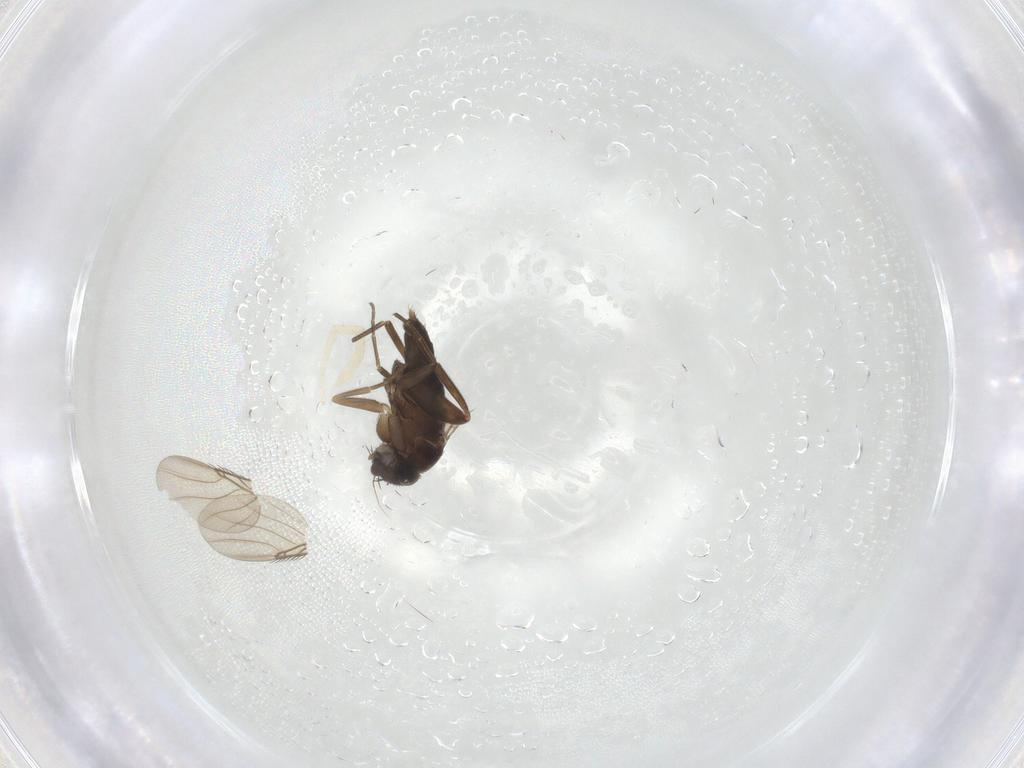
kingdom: Animalia
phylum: Arthropoda
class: Insecta
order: Diptera
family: Phoridae
